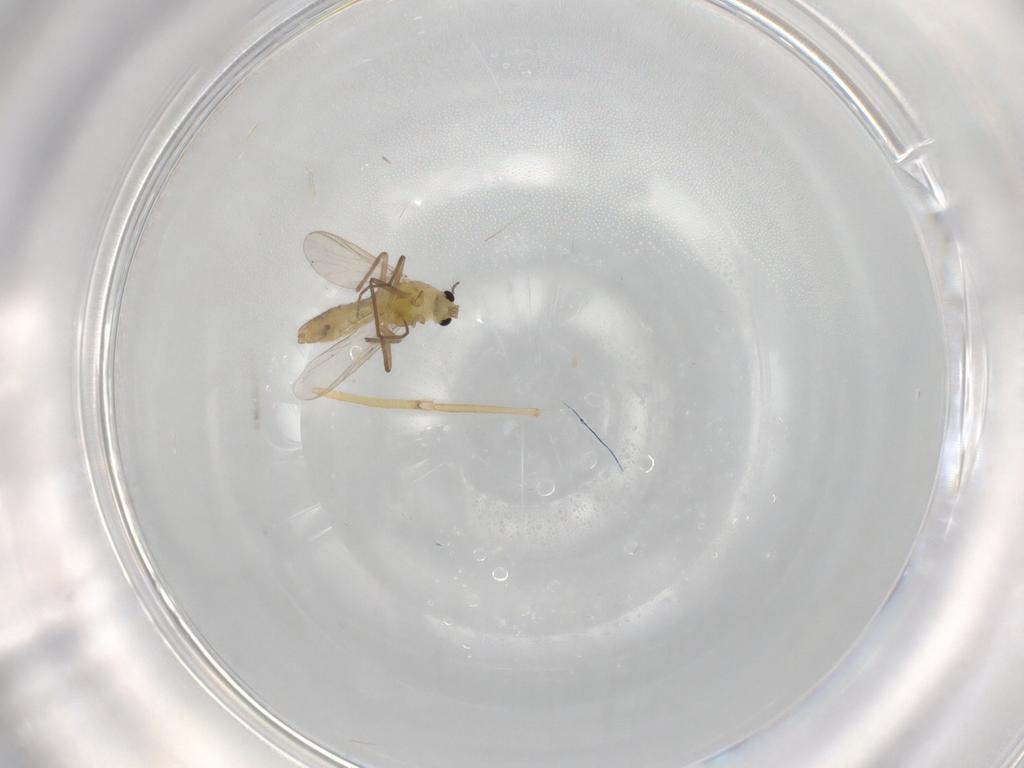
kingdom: Animalia
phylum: Arthropoda
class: Insecta
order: Diptera
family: Chironomidae
